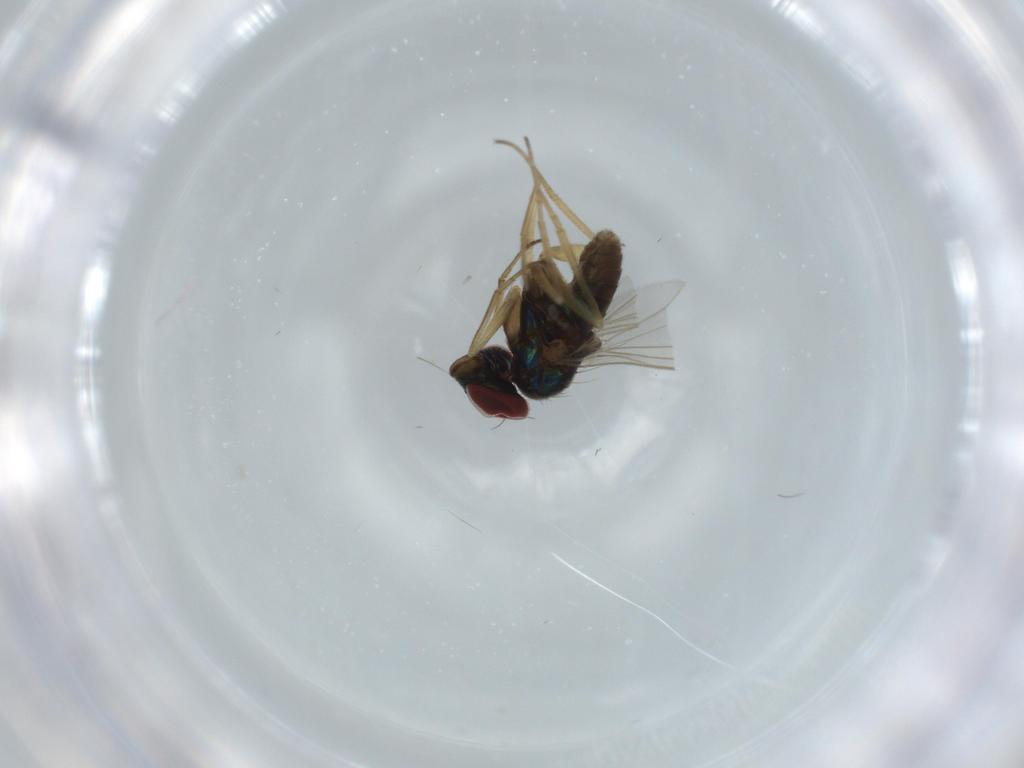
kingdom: Animalia
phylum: Arthropoda
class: Insecta
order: Diptera
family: Dolichopodidae
